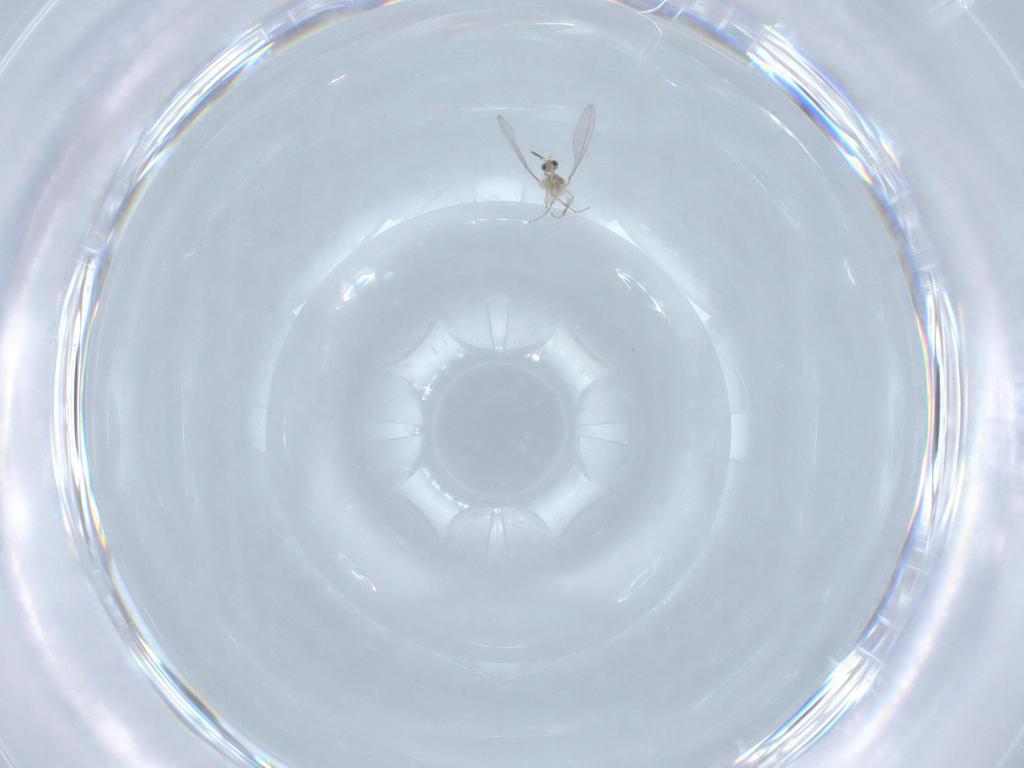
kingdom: Animalia
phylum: Arthropoda
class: Insecta
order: Diptera
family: Cecidomyiidae
